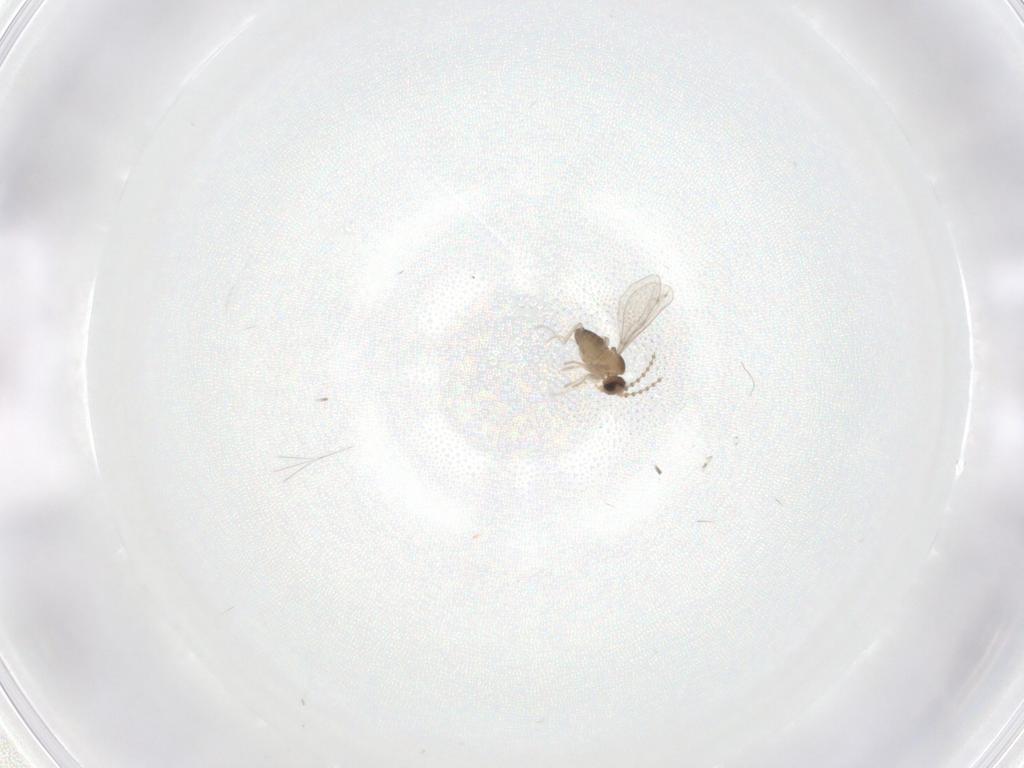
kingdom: Animalia
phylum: Arthropoda
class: Insecta
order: Diptera
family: Phoridae
